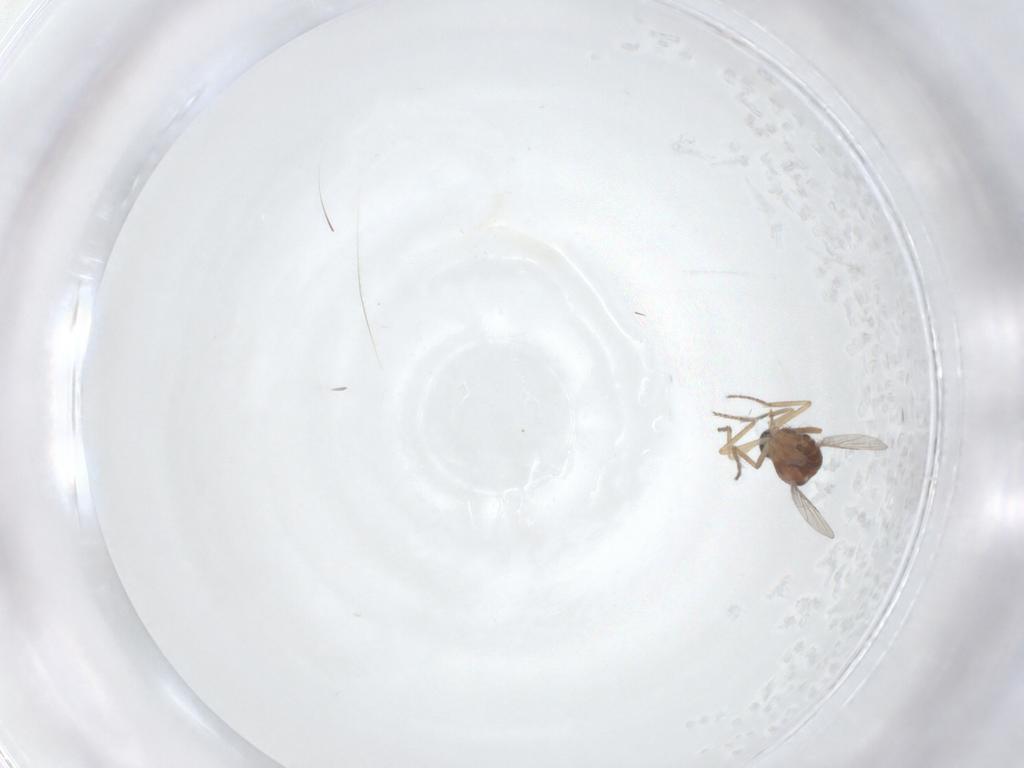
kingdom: Animalia
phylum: Arthropoda
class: Insecta
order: Diptera
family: Ceratopogonidae
